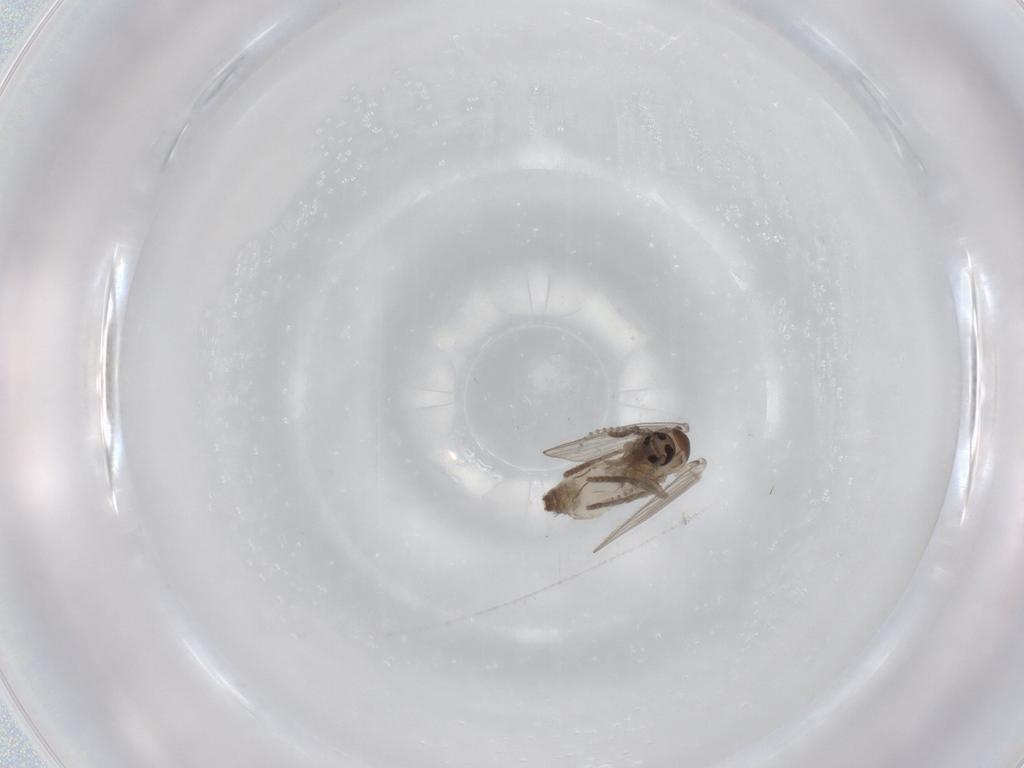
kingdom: Animalia
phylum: Arthropoda
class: Insecta
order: Diptera
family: Psychodidae
